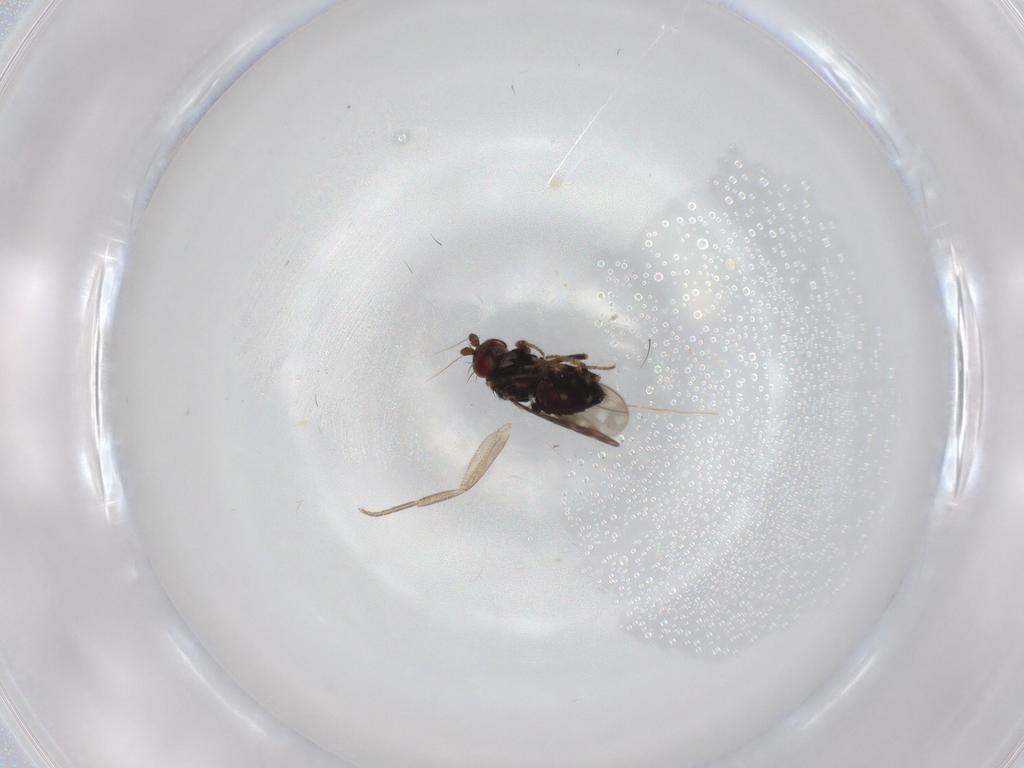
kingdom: Animalia
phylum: Arthropoda
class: Insecta
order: Diptera
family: Sphaeroceridae
